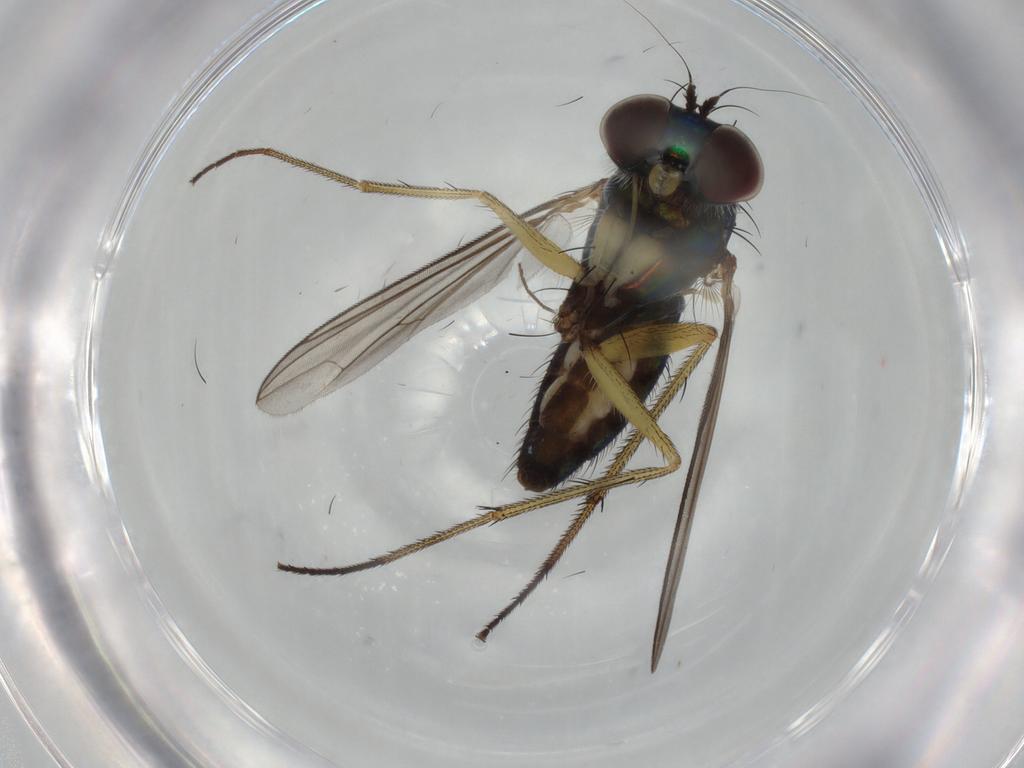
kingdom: Animalia
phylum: Arthropoda
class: Insecta
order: Diptera
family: Dolichopodidae
